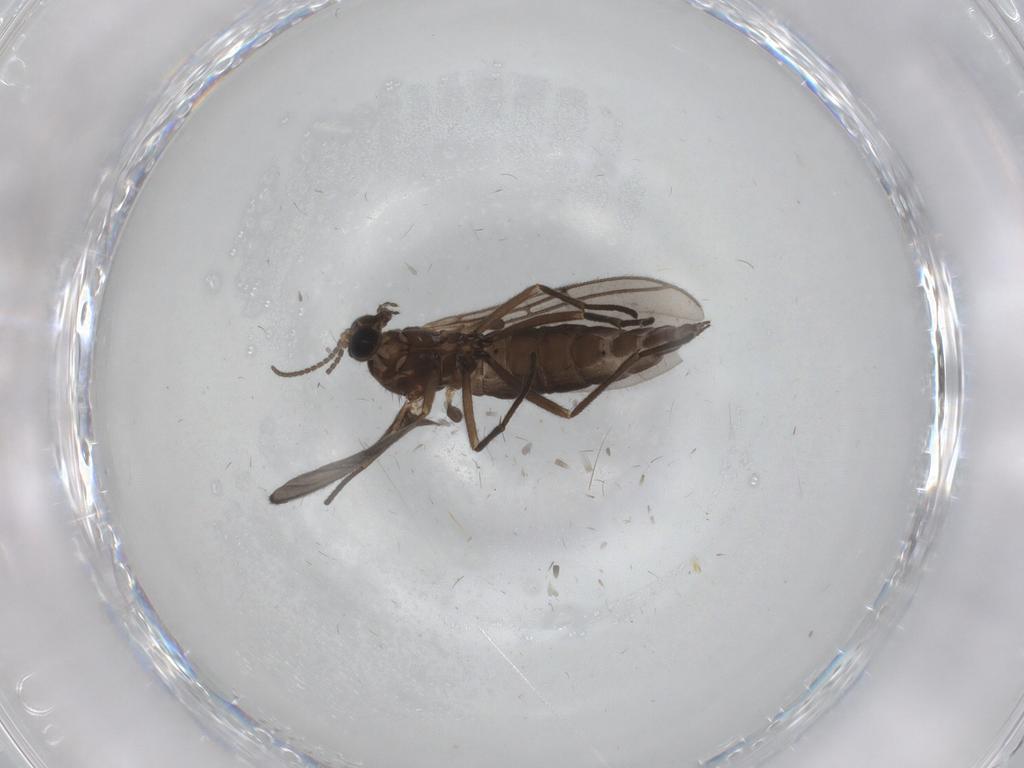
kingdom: Animalia
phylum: Arthropoda
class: Insecta
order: Diptera
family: Sciaridae
